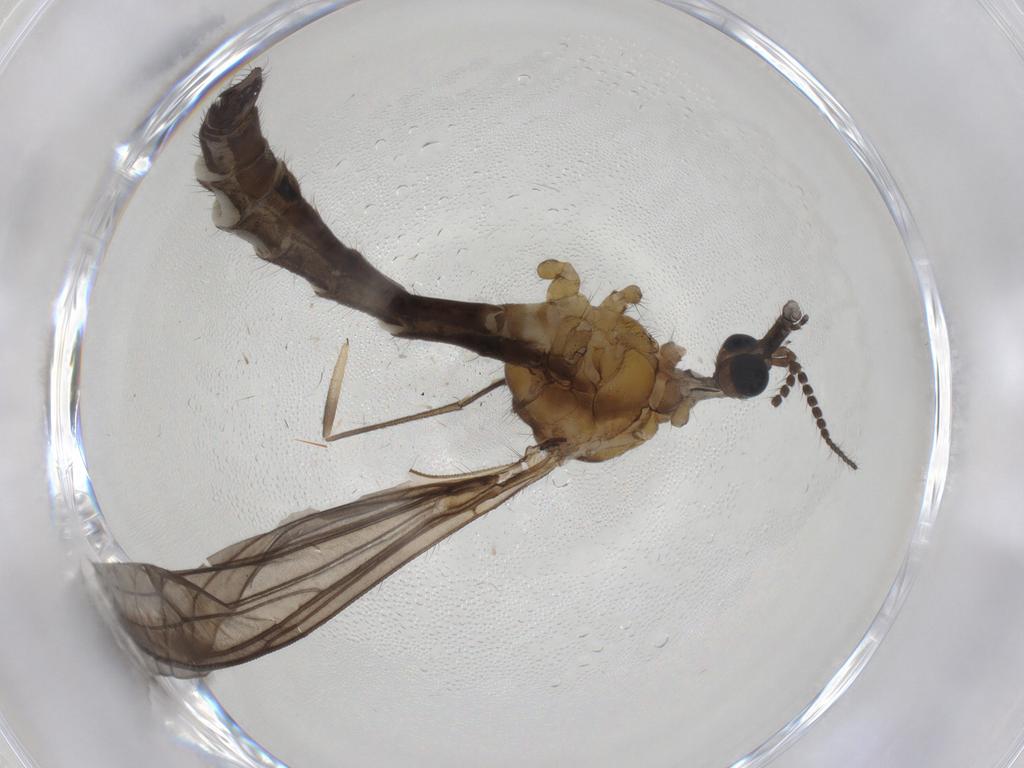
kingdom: Animalia
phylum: Arthropoda
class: Insecta
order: Diptera
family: Limoniidae
